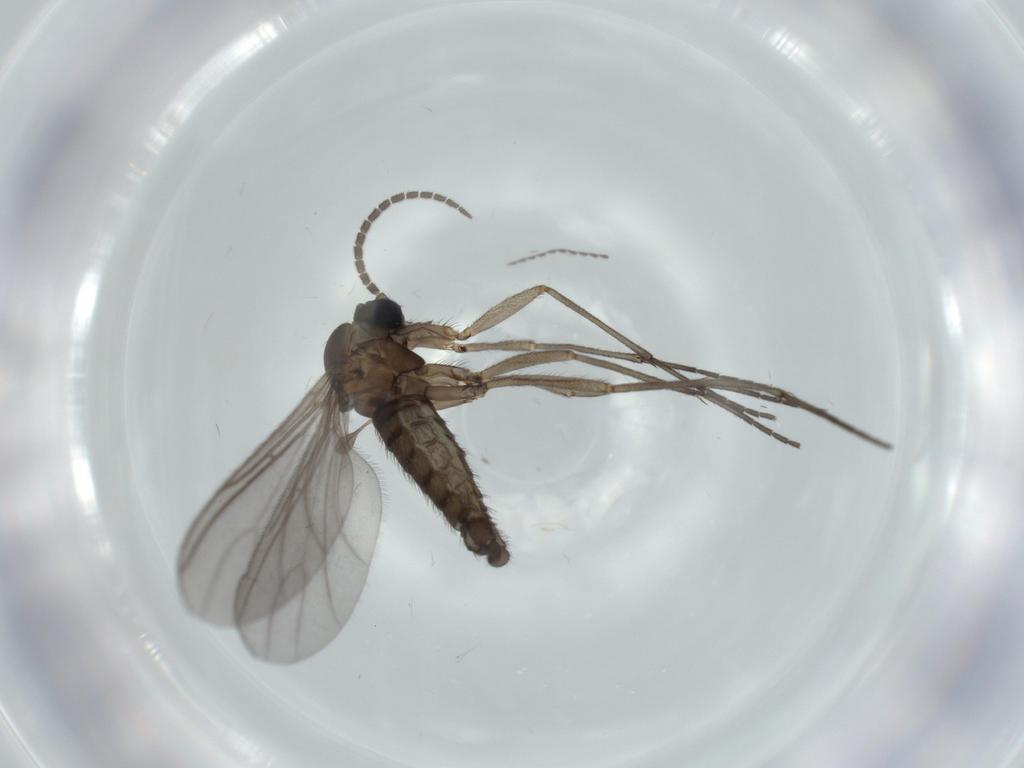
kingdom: Animalia
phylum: Arthropoda
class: Insecta
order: Diptera
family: Sciaridae
